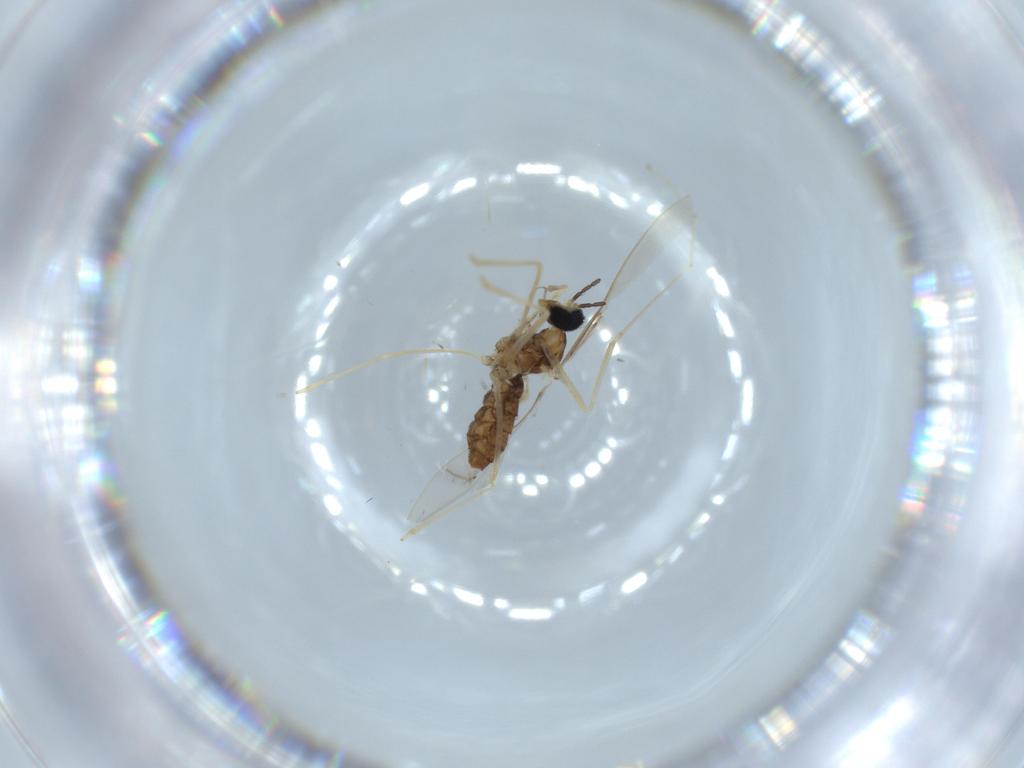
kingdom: Animalia
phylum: Arthropoda
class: Insecta
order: Diptera
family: Cecidomyiidae
